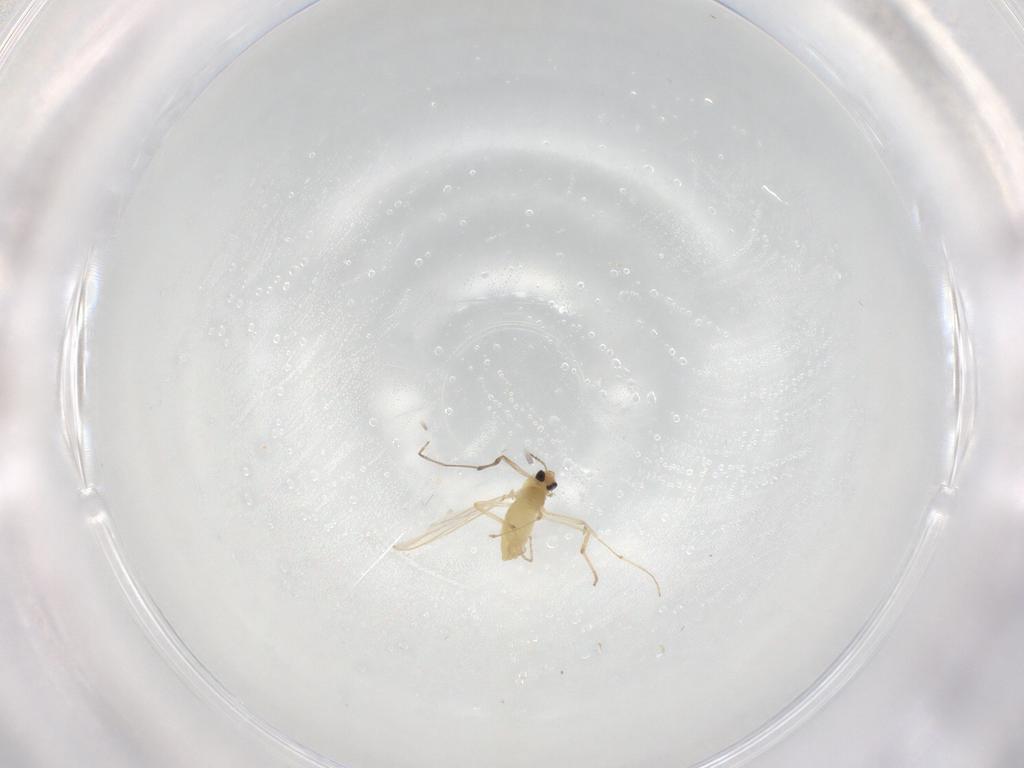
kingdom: Animalia
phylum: Arthropoda
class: Insecta
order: Diptera
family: Chironomidae
